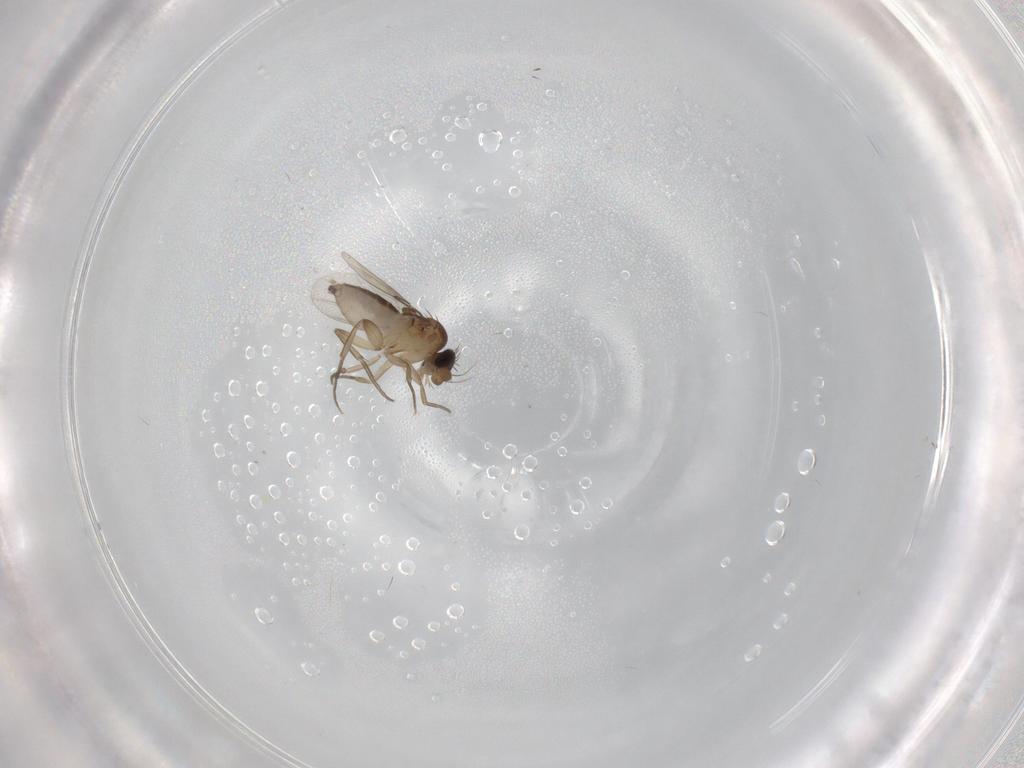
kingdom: Animalia
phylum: Arthropoda
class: Insecta
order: Diptera
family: Phoridae
